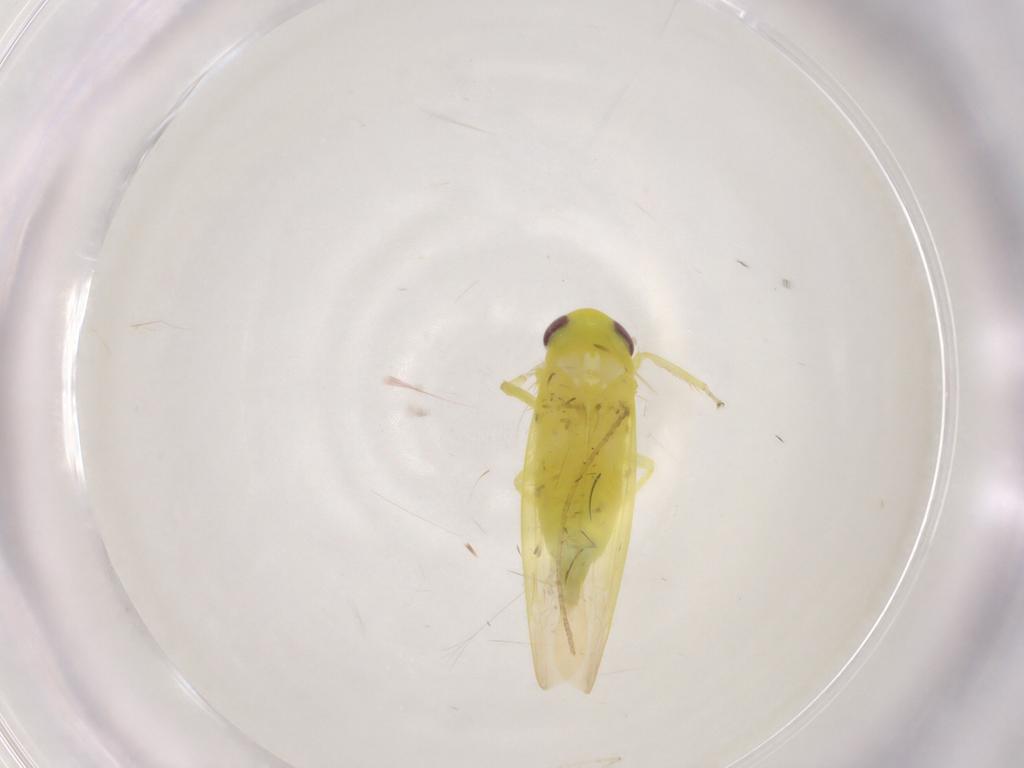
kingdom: Animalia
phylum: Arthropoda
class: Insecta
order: Hemiptera
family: Cicadellidae
